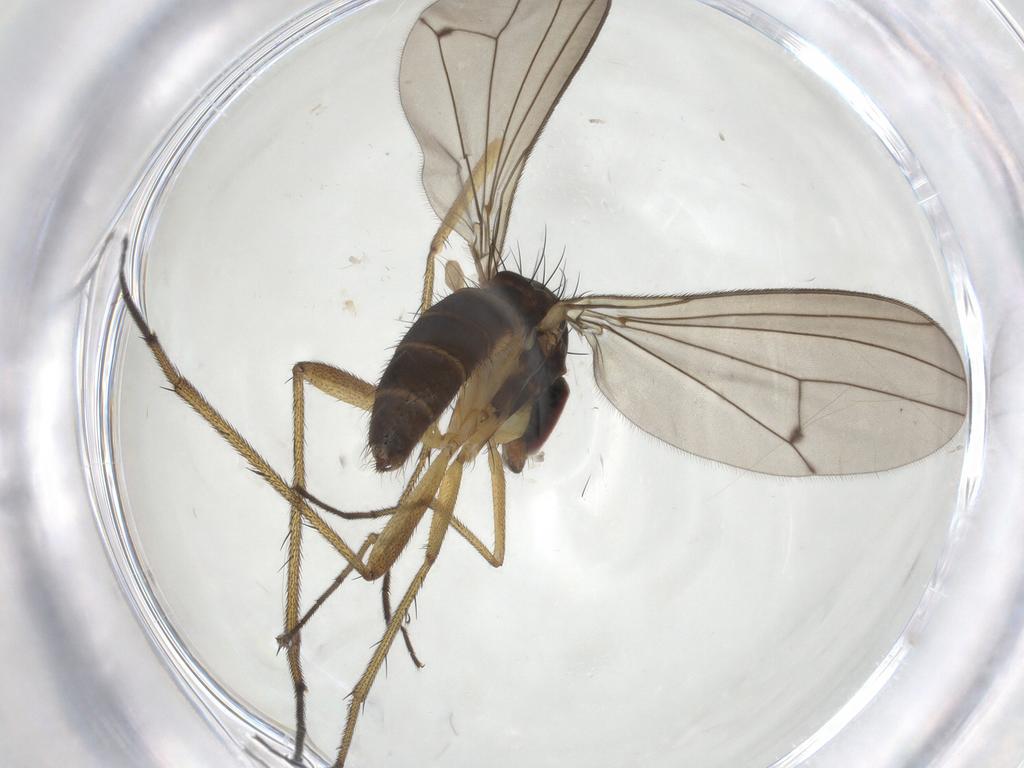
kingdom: Animalia
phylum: Arthropoda
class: Insecta
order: Diptera
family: Dolichopodidae
